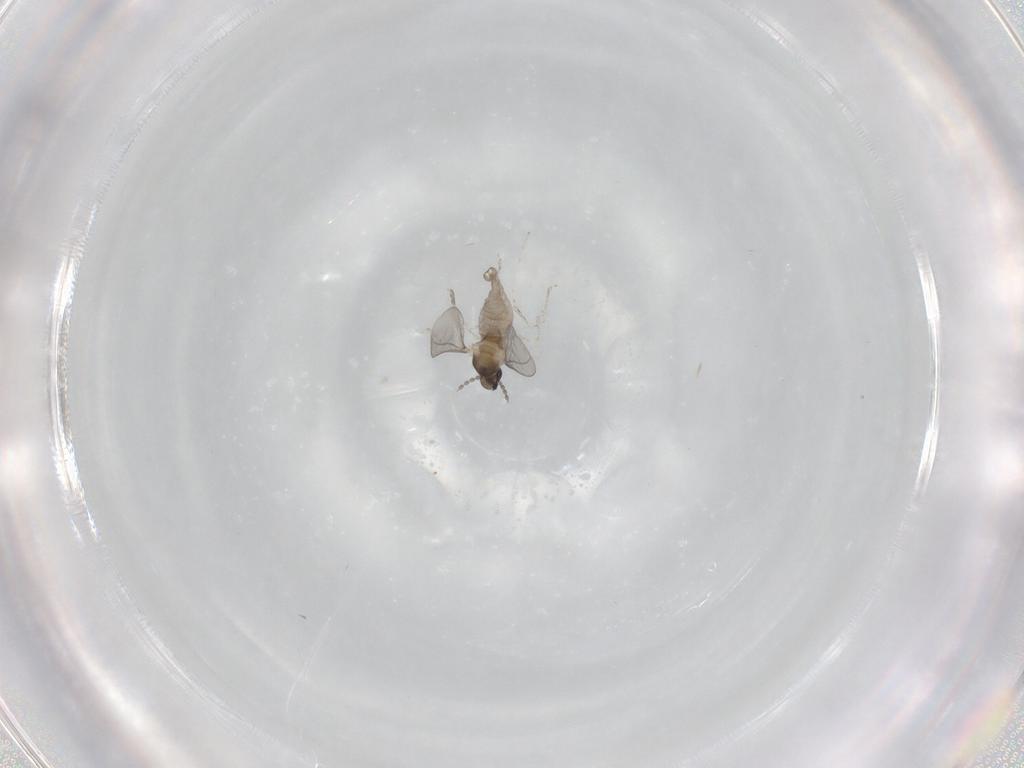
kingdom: Animalia
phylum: Arthropoda
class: Insecta
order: Diptera
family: Cecidomyiidae
